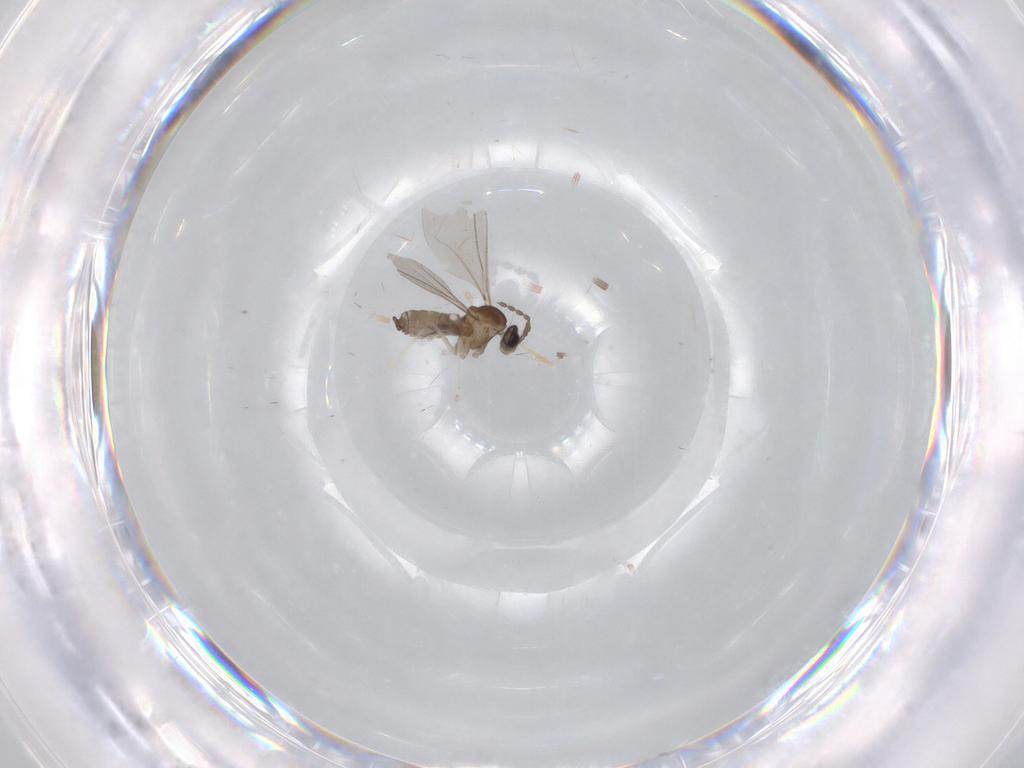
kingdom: Animalia
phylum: Arthropoda
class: Insecta
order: Diptera
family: Cecidomyiidae
